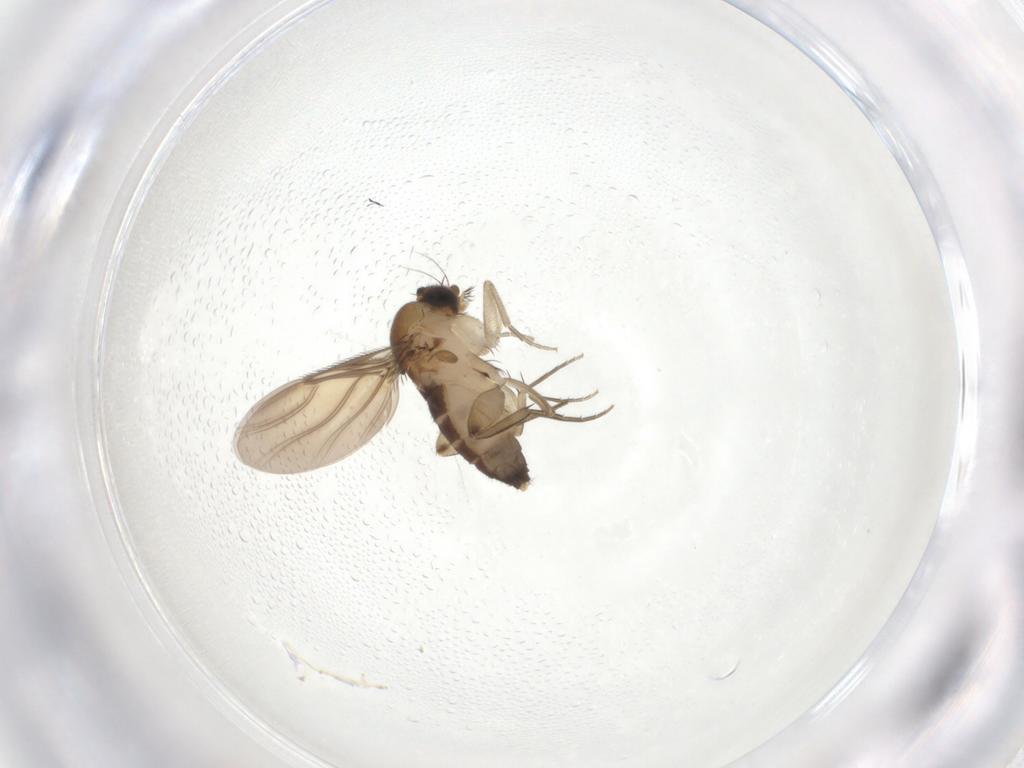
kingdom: Animalia
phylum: Arthropoda
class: Insecta
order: Diptera
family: Phoridae
